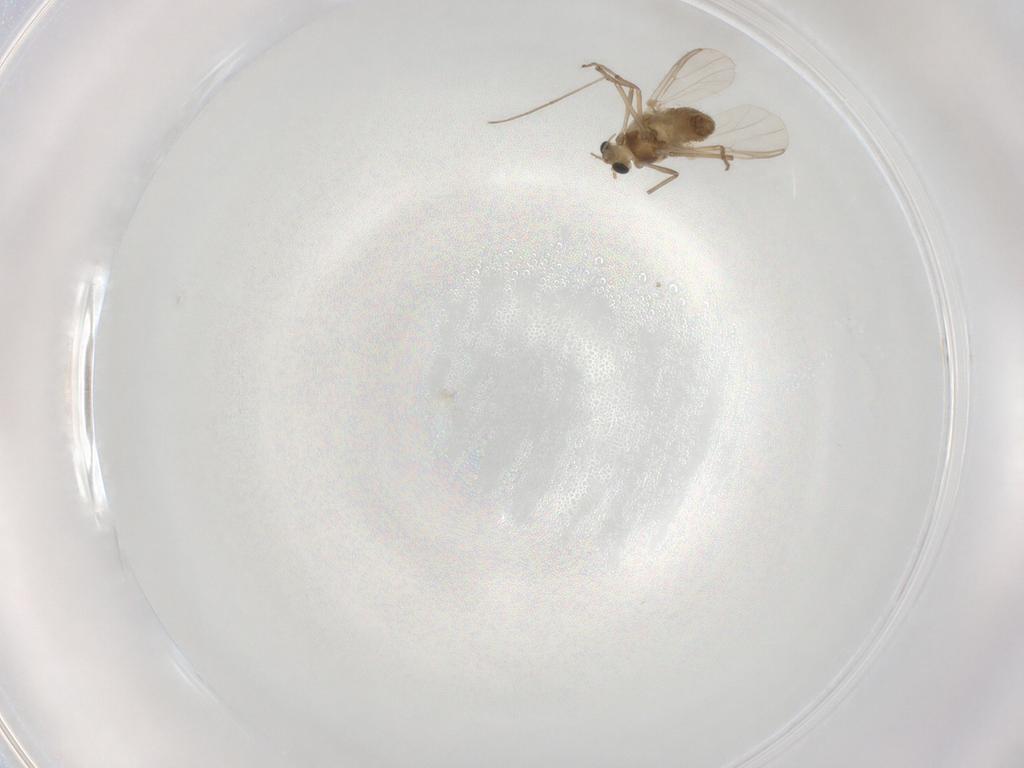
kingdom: Animalia
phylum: Arthropoda
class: Insecta
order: Diptera
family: Chironomidae
